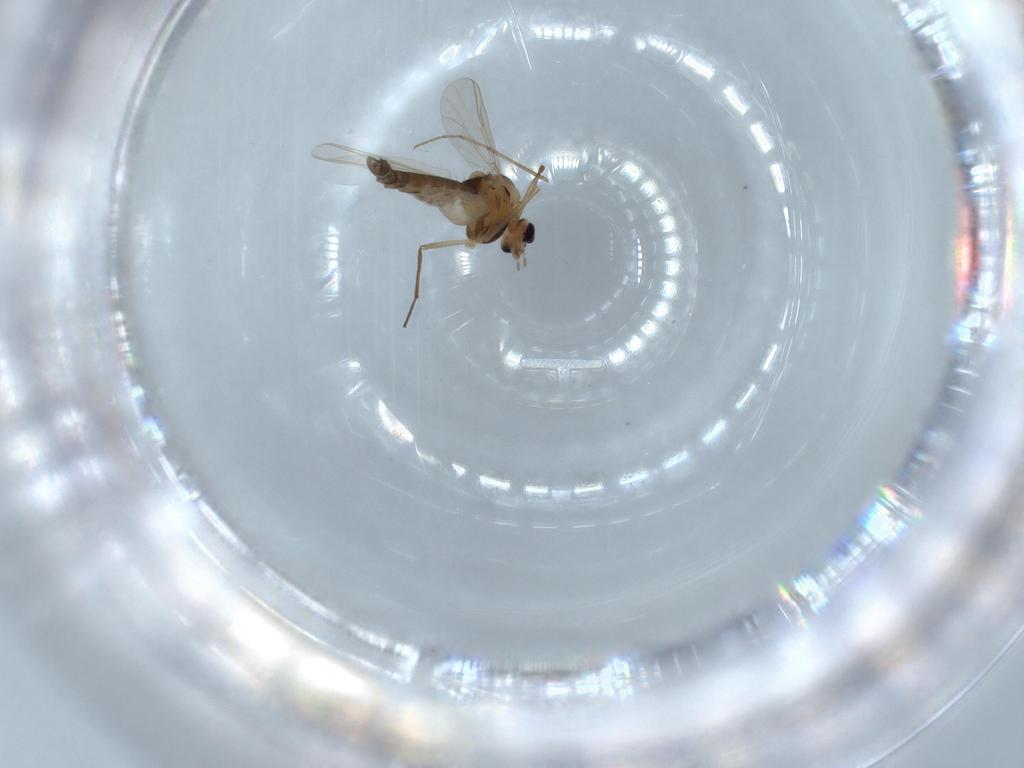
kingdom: Animalia
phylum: Arthropoda
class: Insecta
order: Diptera
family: Chironomidae
